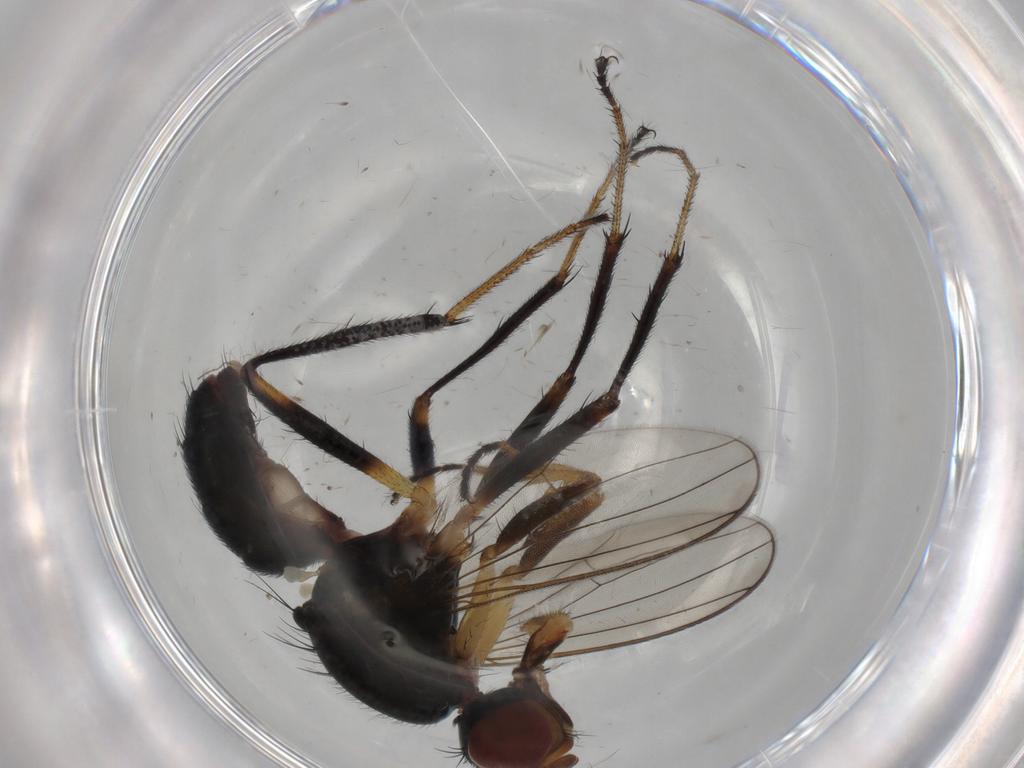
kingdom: Animalia
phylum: Arthropoda
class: Insecta
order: Diptera
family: Sepsidae
